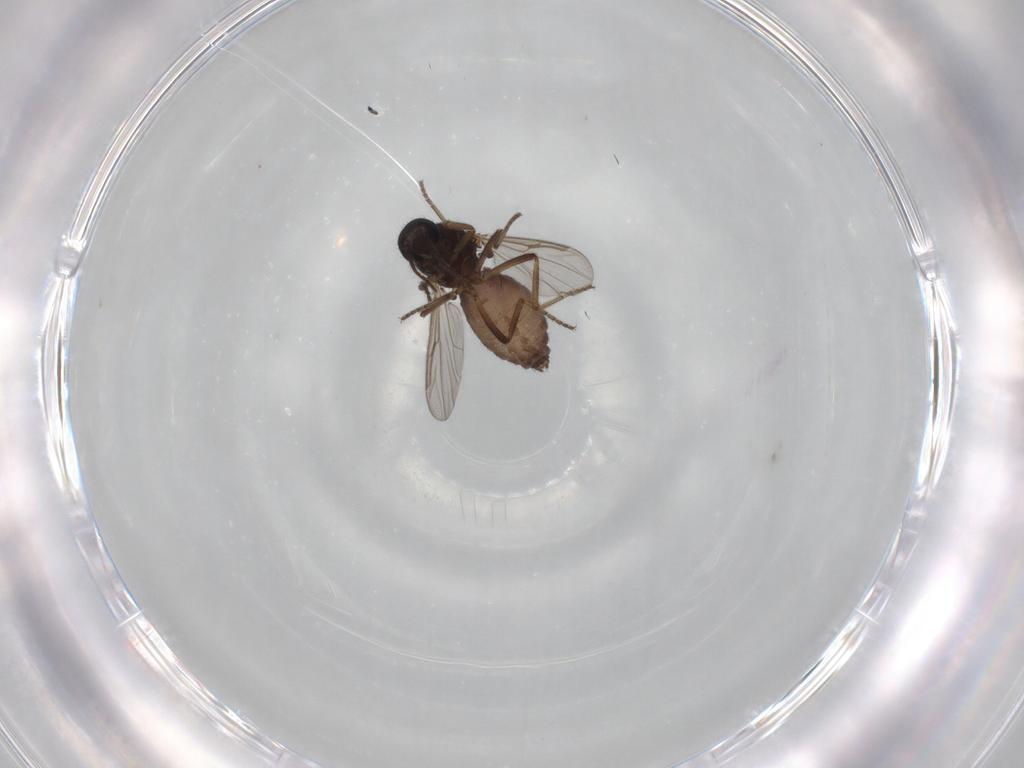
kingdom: Animalia
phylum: Arthropoda
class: Insecta
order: Diptera
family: Ceratopogonidae
